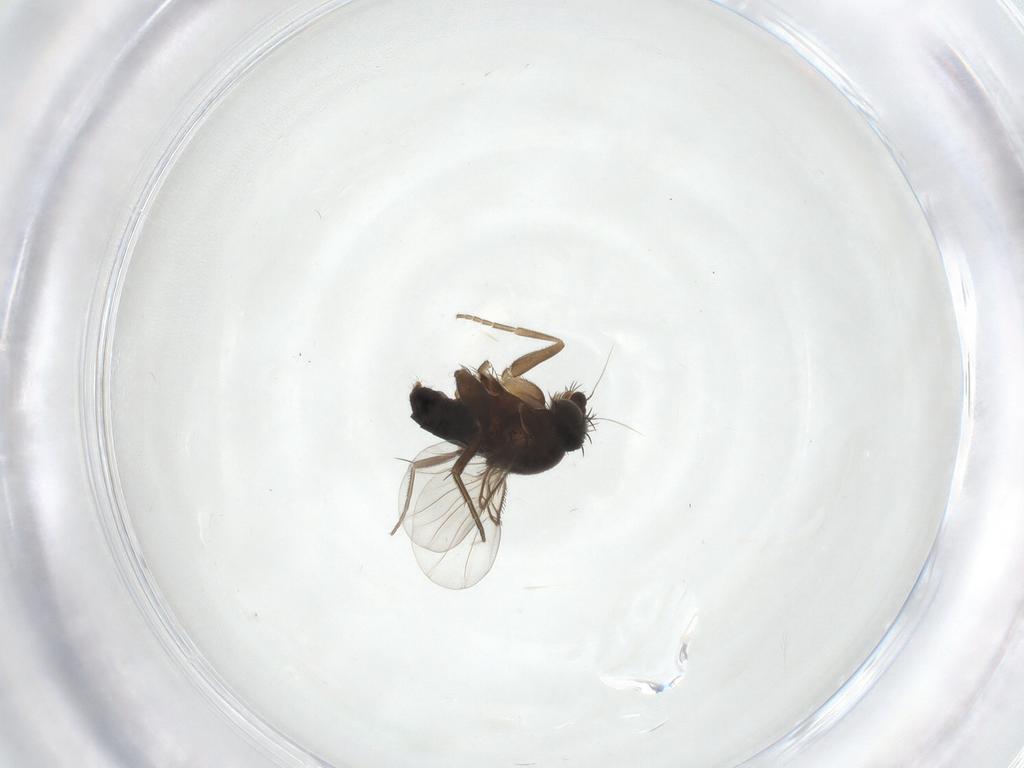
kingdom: Animalia
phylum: Arthropoda
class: Insecta
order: Diptera
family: Phoridae
